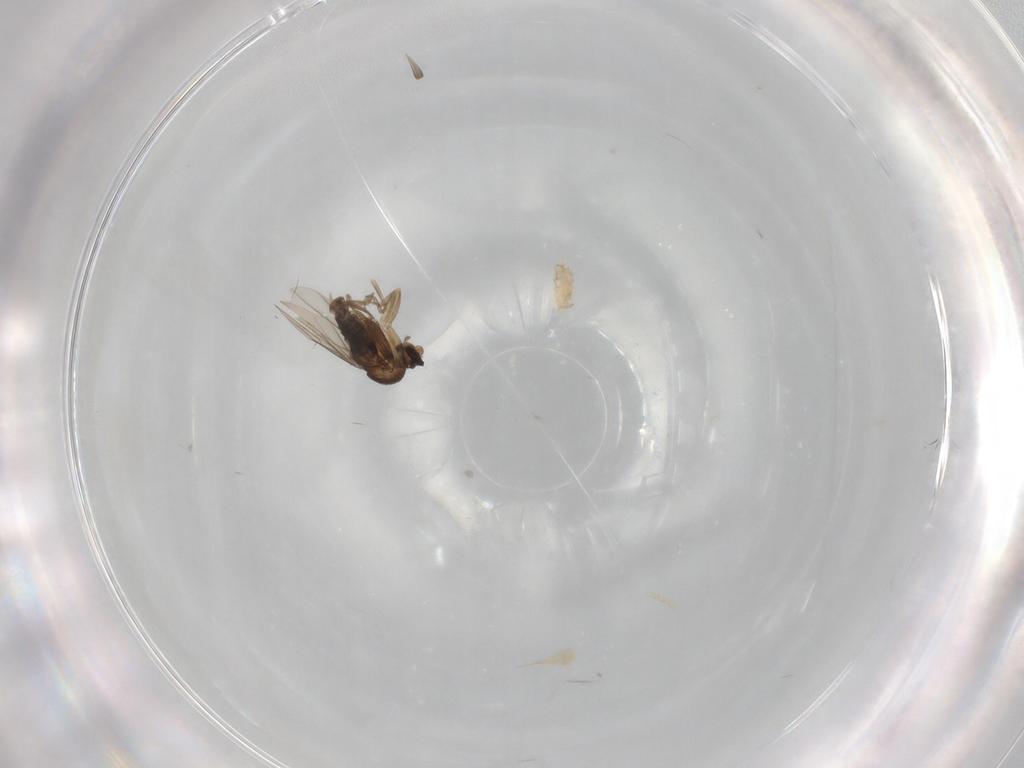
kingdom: Animalia
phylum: Arthropoda
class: Insecta
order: Diptera
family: Phoridae
